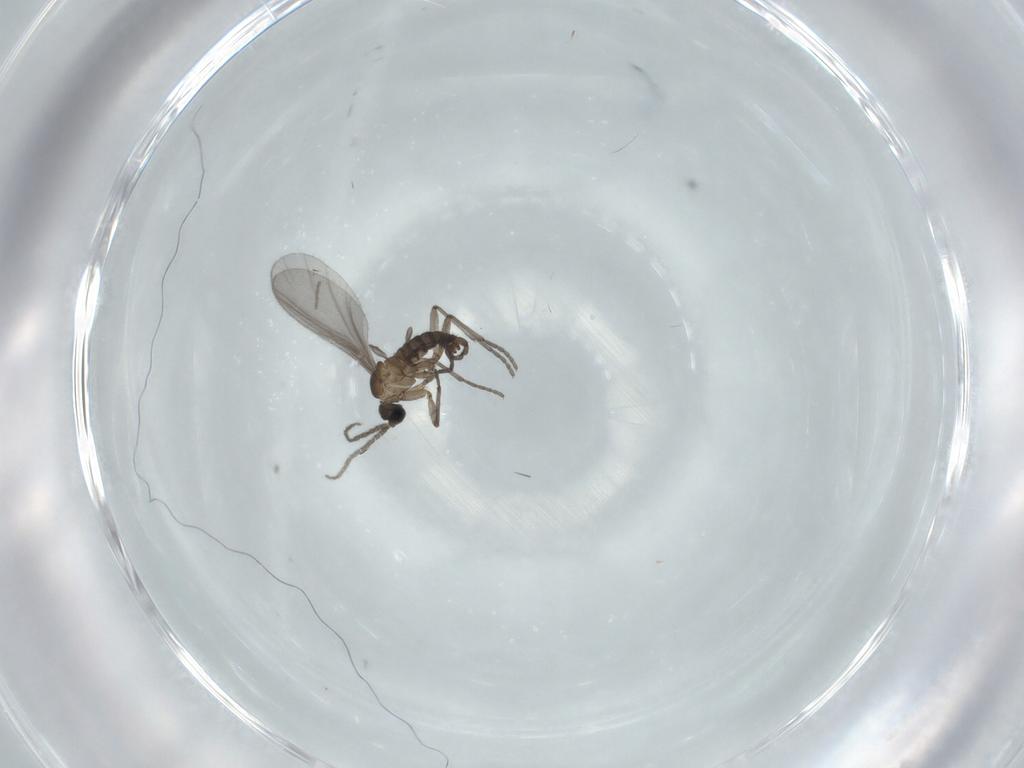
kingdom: Animalia
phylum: Arthropoda
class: Insecta
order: Diptera
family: Sciaridae
